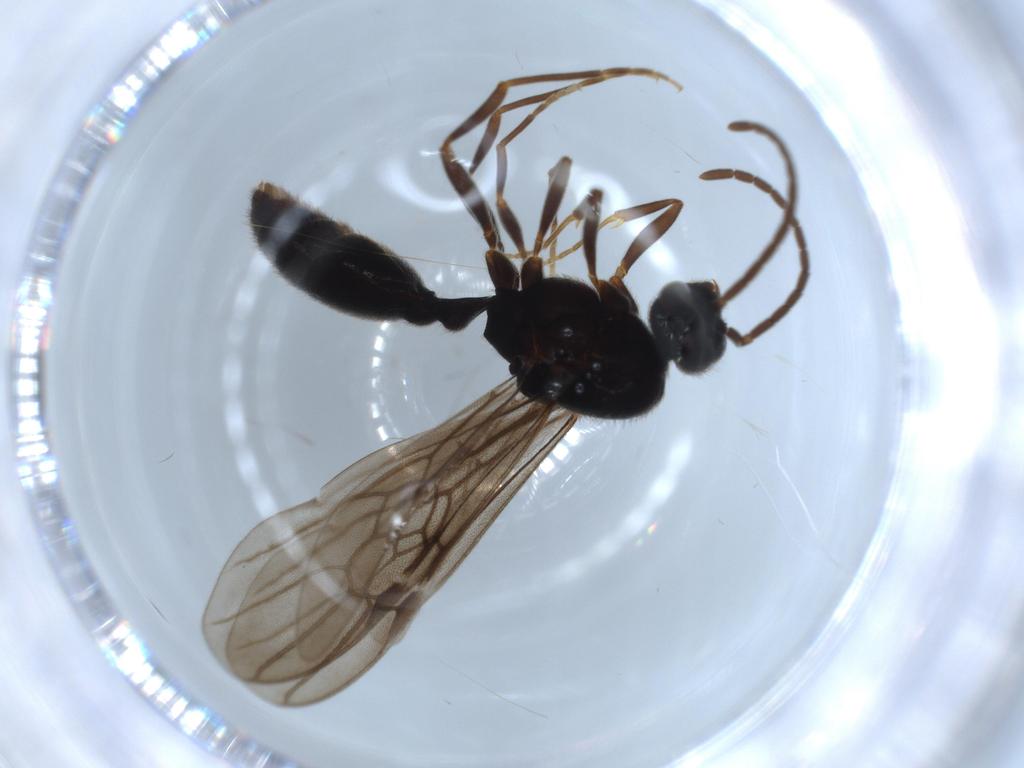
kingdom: Animalia
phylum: Arthropoda
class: Insecta
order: Hymenoptera
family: Formicidae
